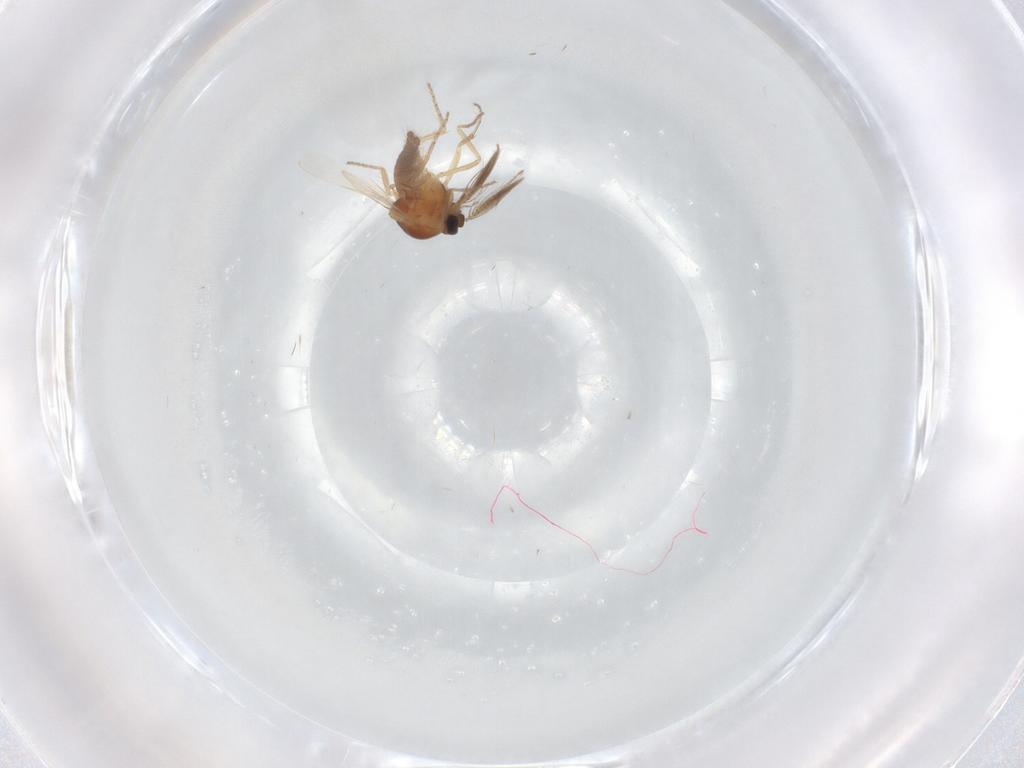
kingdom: Animalia
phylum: Arthropoda
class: Insecta
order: Diptera
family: Ceratopogonidae
